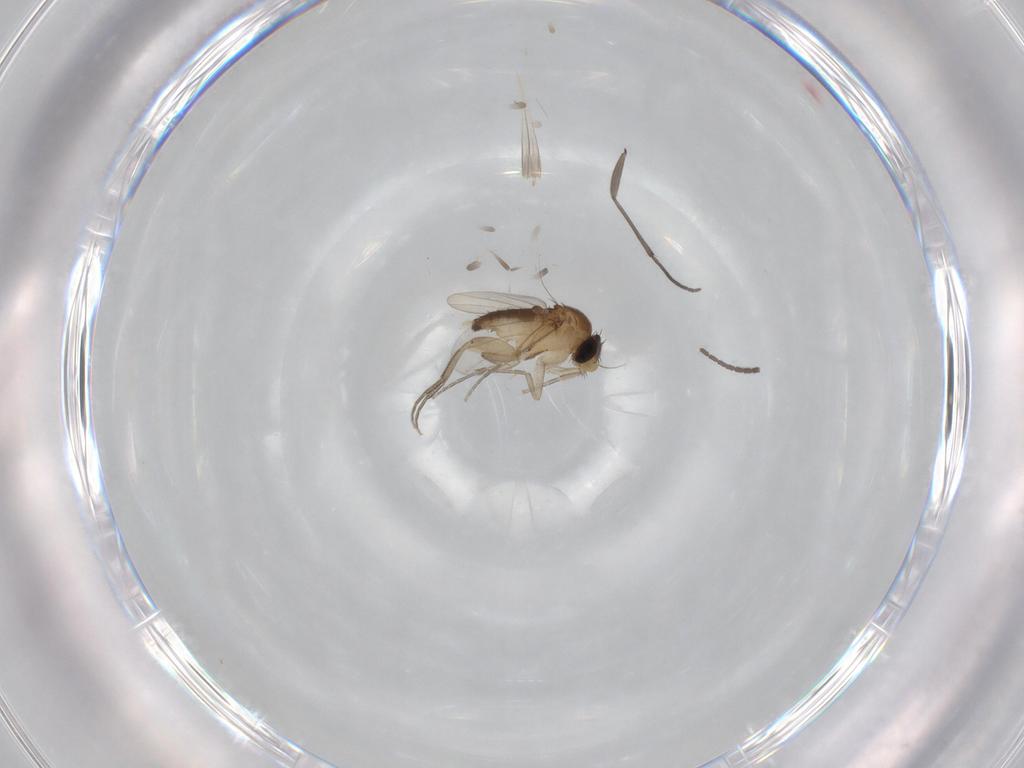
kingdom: Animalia
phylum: Arthropoda
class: Insecta
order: Diptera
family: Phoridae
